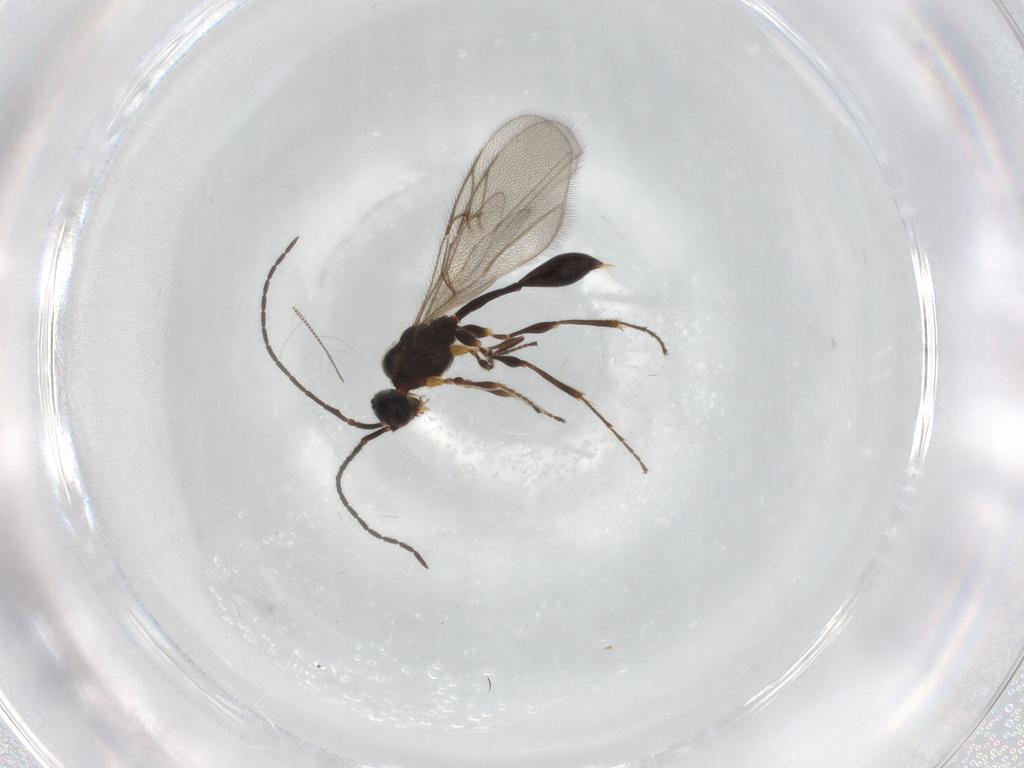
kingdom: Animalia
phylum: Arthropoda
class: Insecta
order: Hymenoptera
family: Diapriidae
